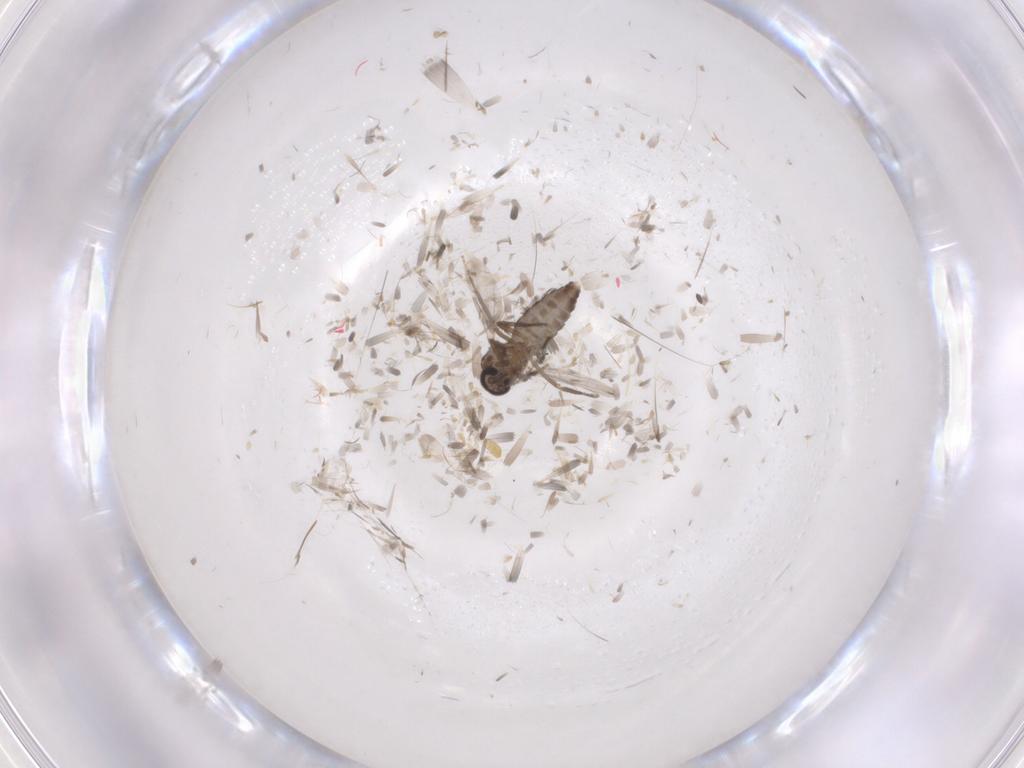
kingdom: Animalia
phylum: Arthropoda
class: Insecta
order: Diptera
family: Ceratopogonidae
